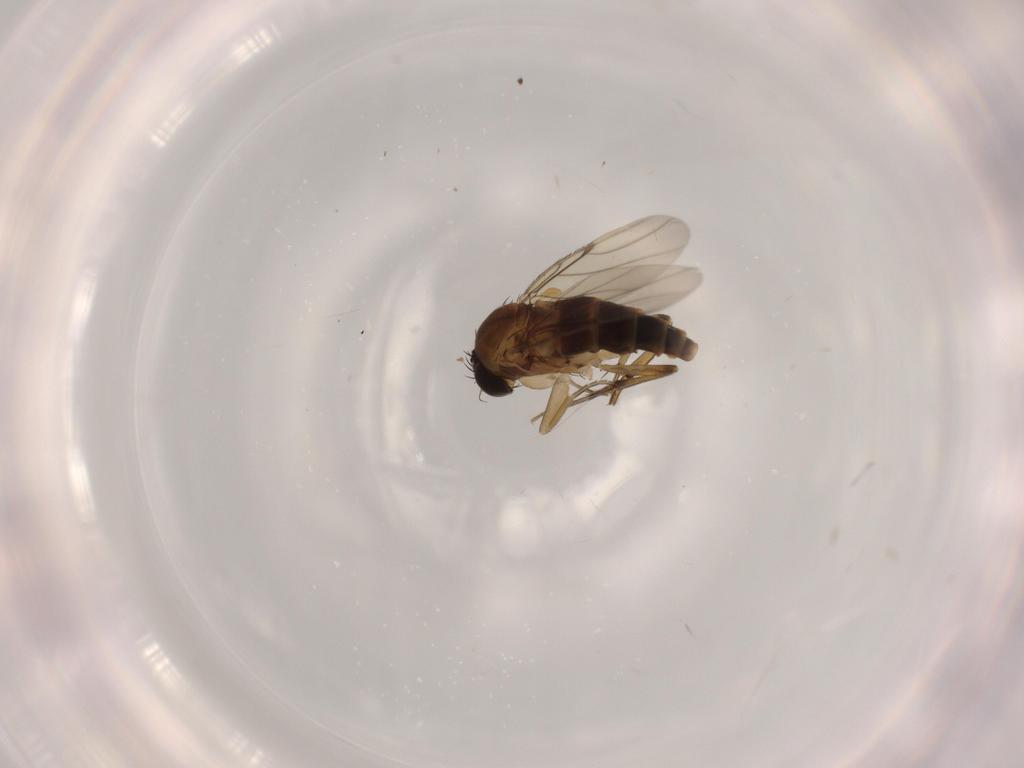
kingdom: Animalia
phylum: Arthropoda
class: Insecta
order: Diptera
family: Phoridae
